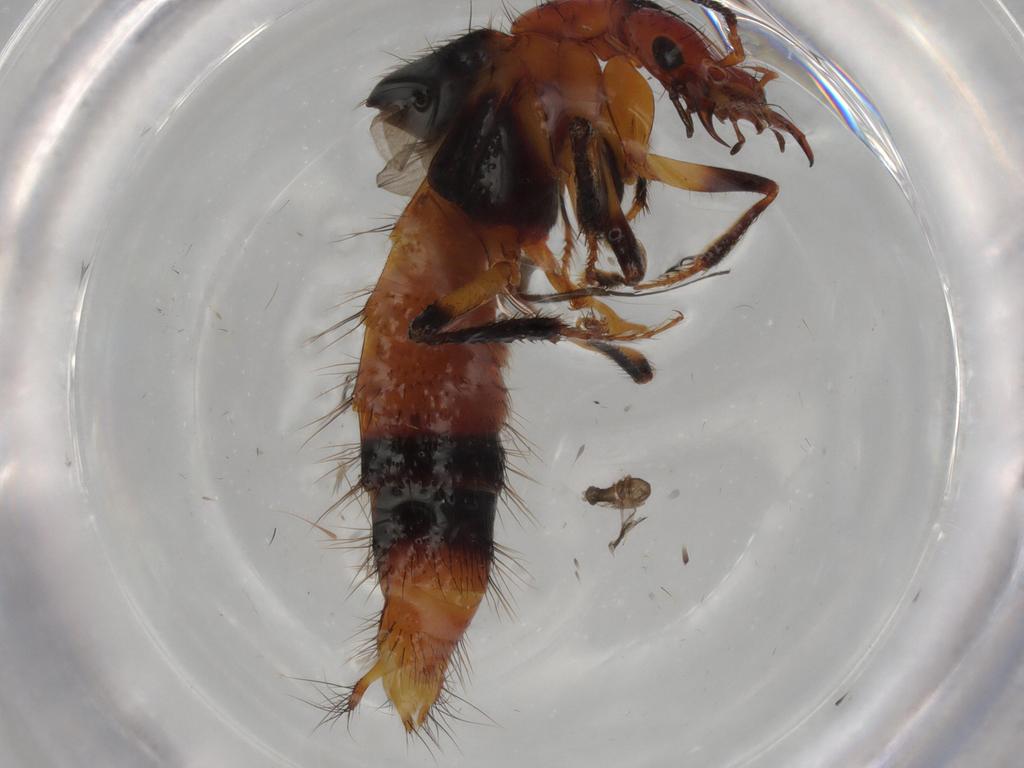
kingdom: Animalia
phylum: Arthropoda
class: Insecta
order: Coleoptera
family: Staphylinidae
